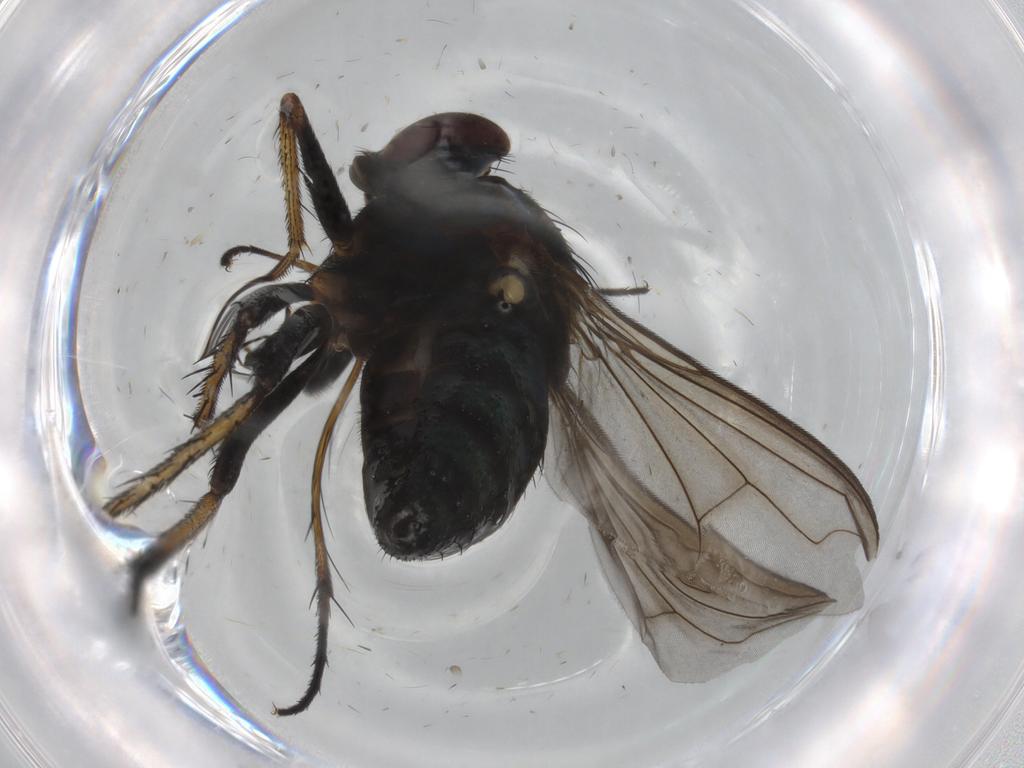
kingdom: Animalia
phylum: Arthropoda
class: Insecta
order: Diptera
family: Dolichopodidae
